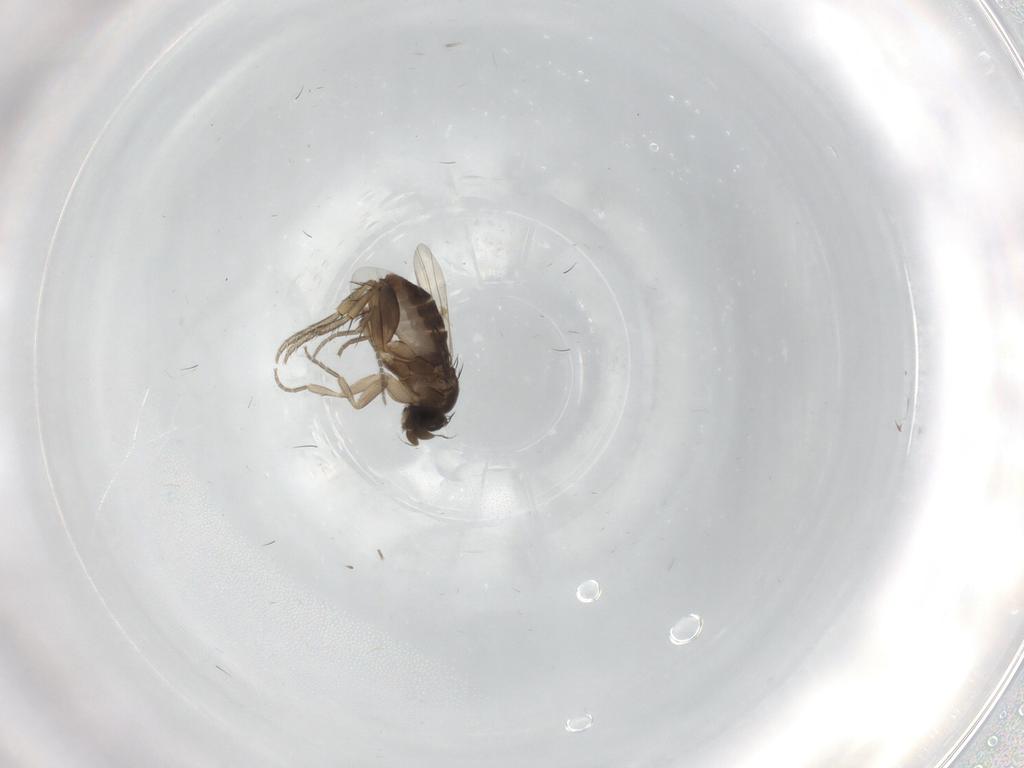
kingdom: Animalia
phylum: Arthropoda
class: Insecta
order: Diptera
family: Phoridae
